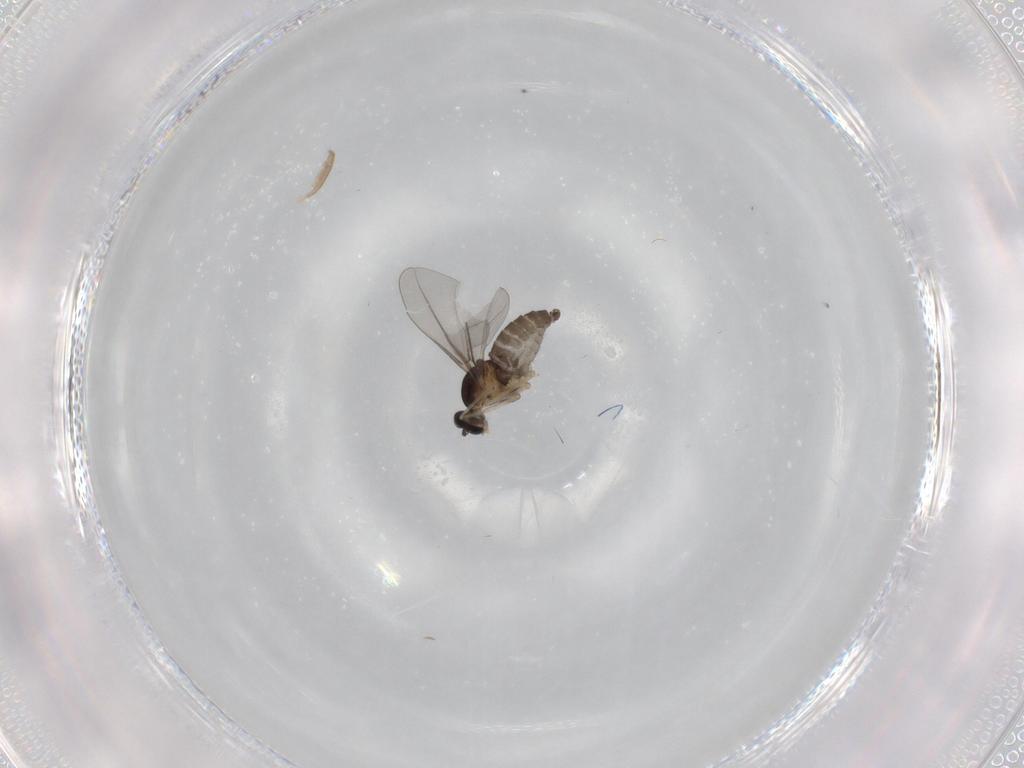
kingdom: Animalia
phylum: Arthropoda
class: Insecta
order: Diptera
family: Cecidomyiidae
